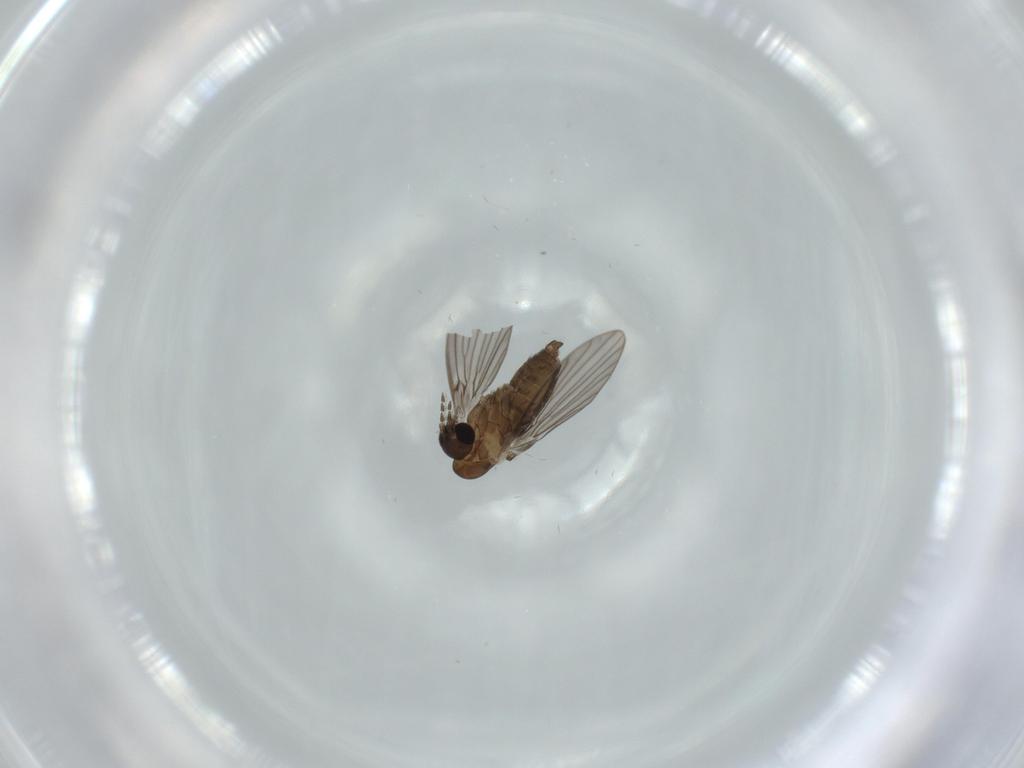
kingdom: Animalia
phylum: Arthropoda
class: Insecta
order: Diptera
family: Psychodidae
